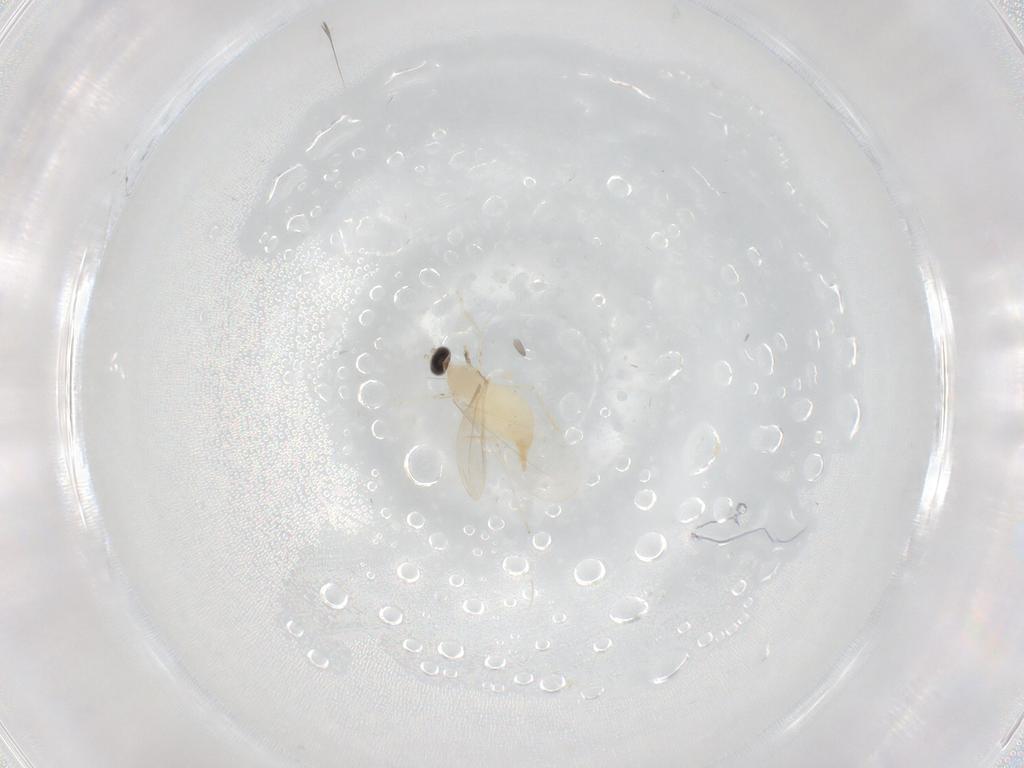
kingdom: Animalia
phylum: Arthropoda
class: Insecta
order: Diptera
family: Cecidomyiidae
